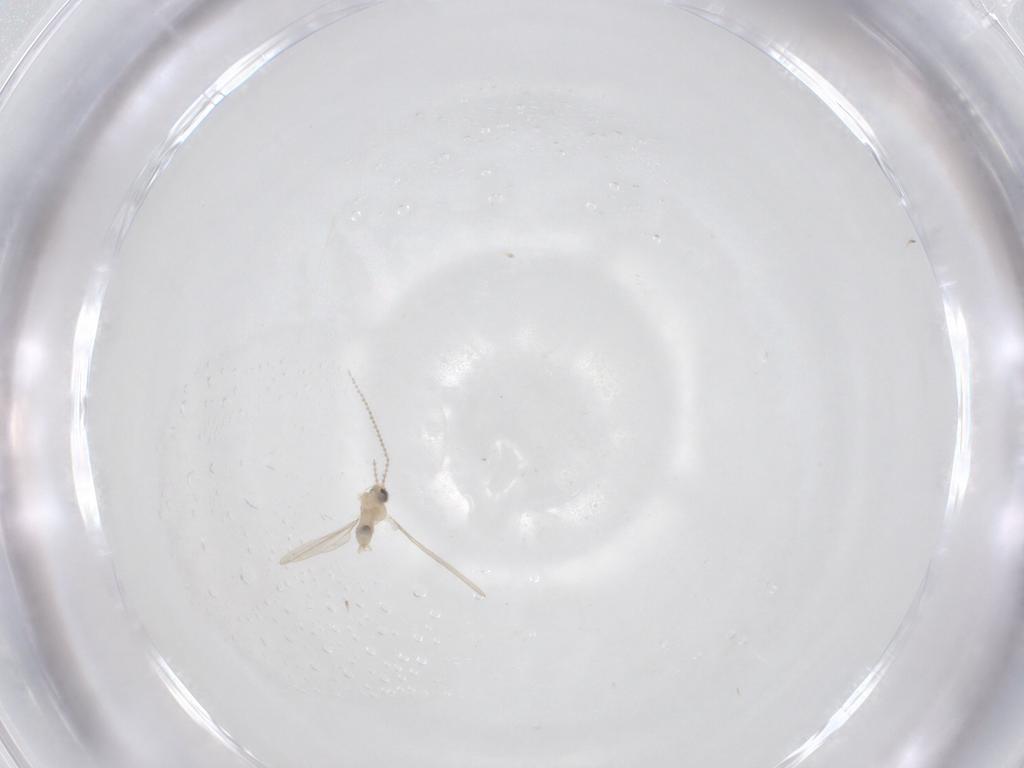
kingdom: Animalia
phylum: Arthropoda
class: Insecta
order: Diptera
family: Cecidomyiidae
